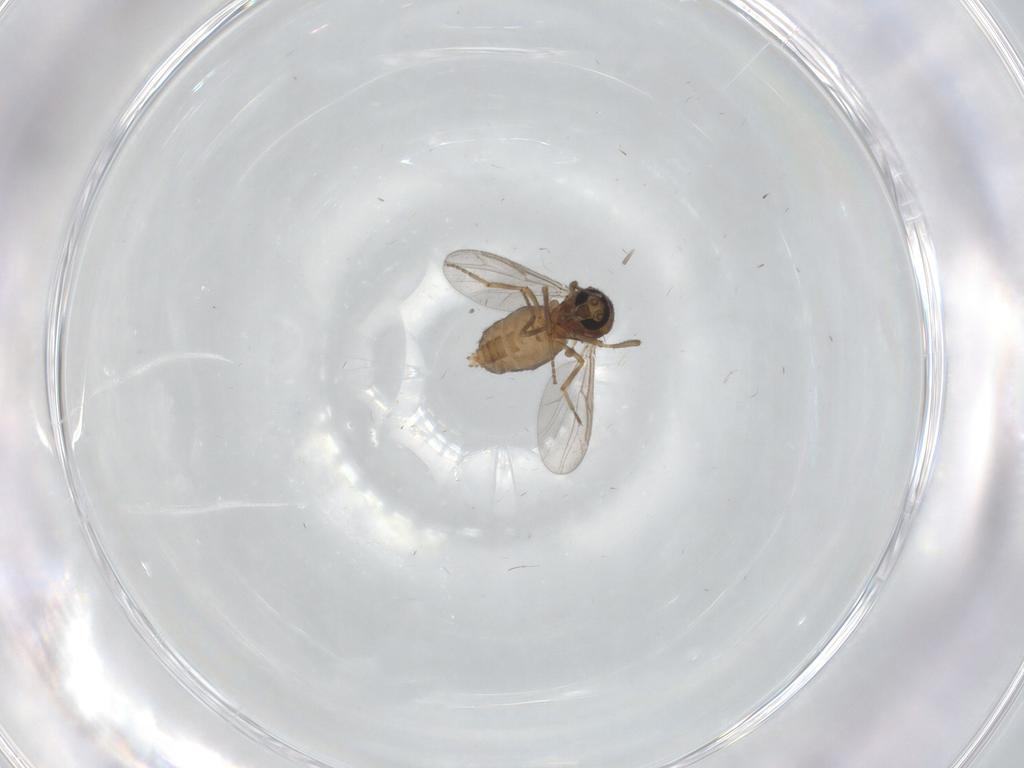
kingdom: Animalia
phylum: Arthropoda
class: Insecta
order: Diptera
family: Ceratopogonidae
